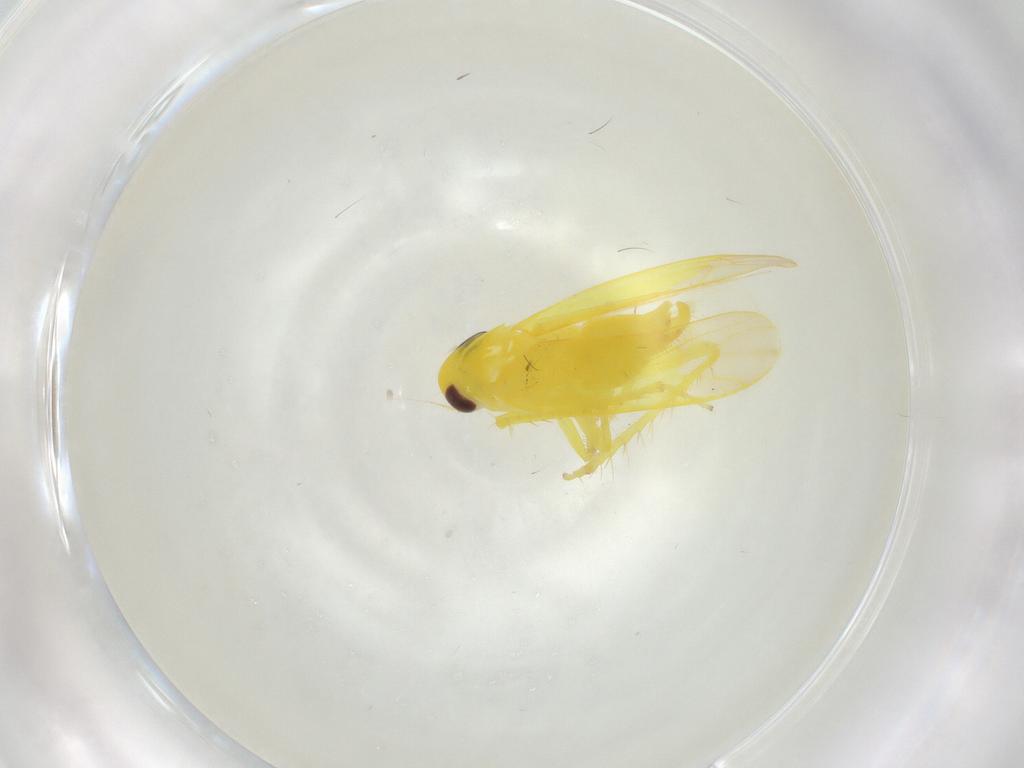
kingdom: Animalia
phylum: Arthropoda
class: Insecta
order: Hemiptera
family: Cicadellidae
